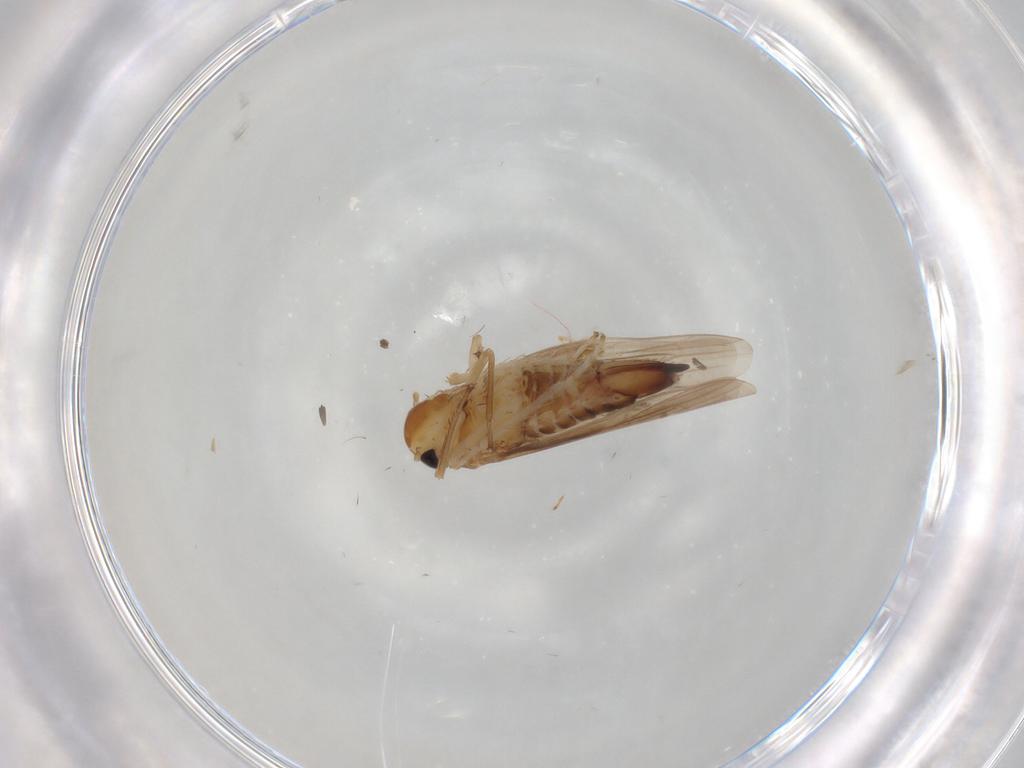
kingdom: Animalia
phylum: Arthropoda
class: Insecta
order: Hemiptera
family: Cicadellidae
